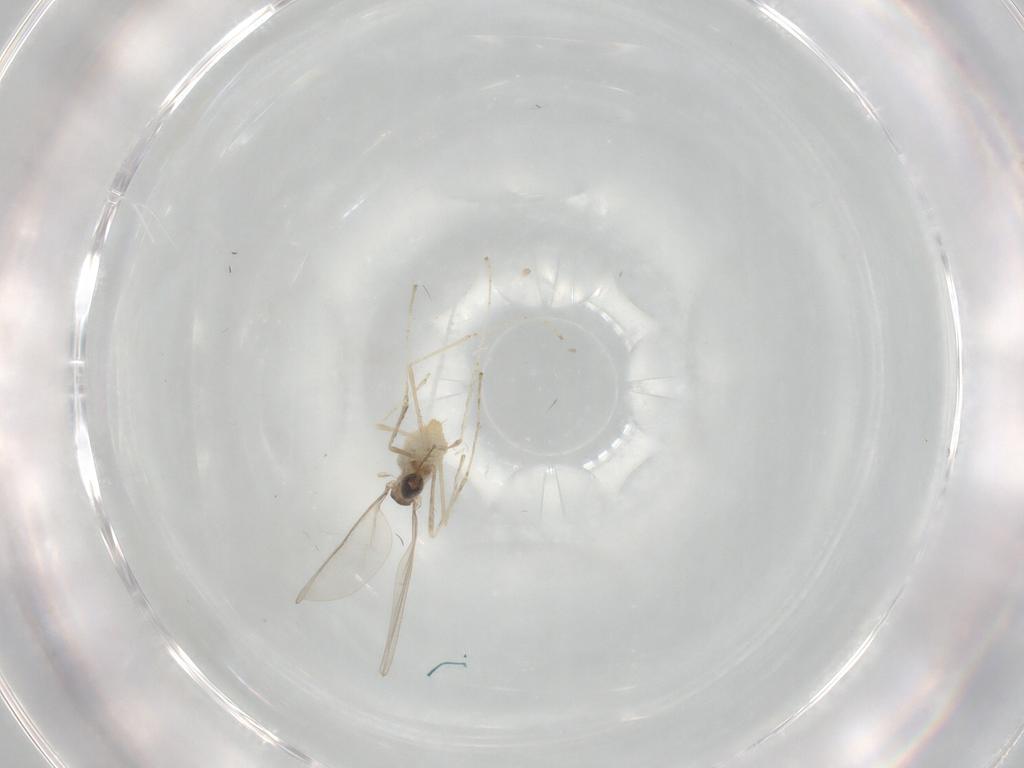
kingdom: Animalia
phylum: Arthropoda
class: Insecta
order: Diptera
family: Cecidomyiidae
